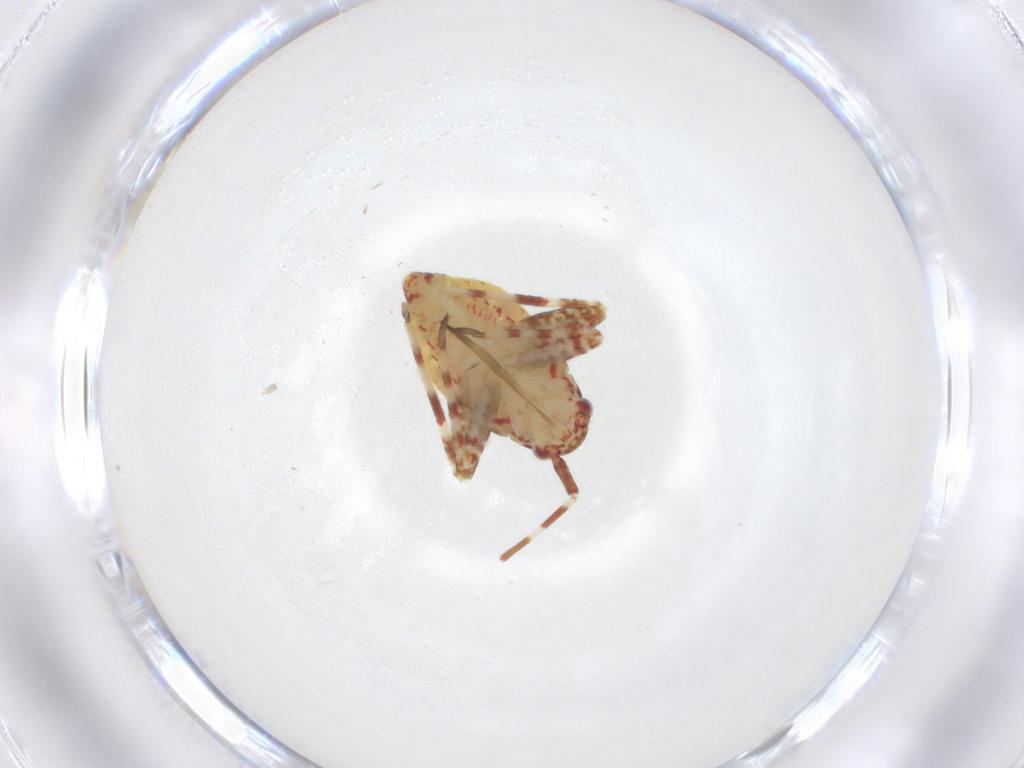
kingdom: Animalia
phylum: Arthropoda
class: Insecta
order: Hemiptera
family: Miridae
